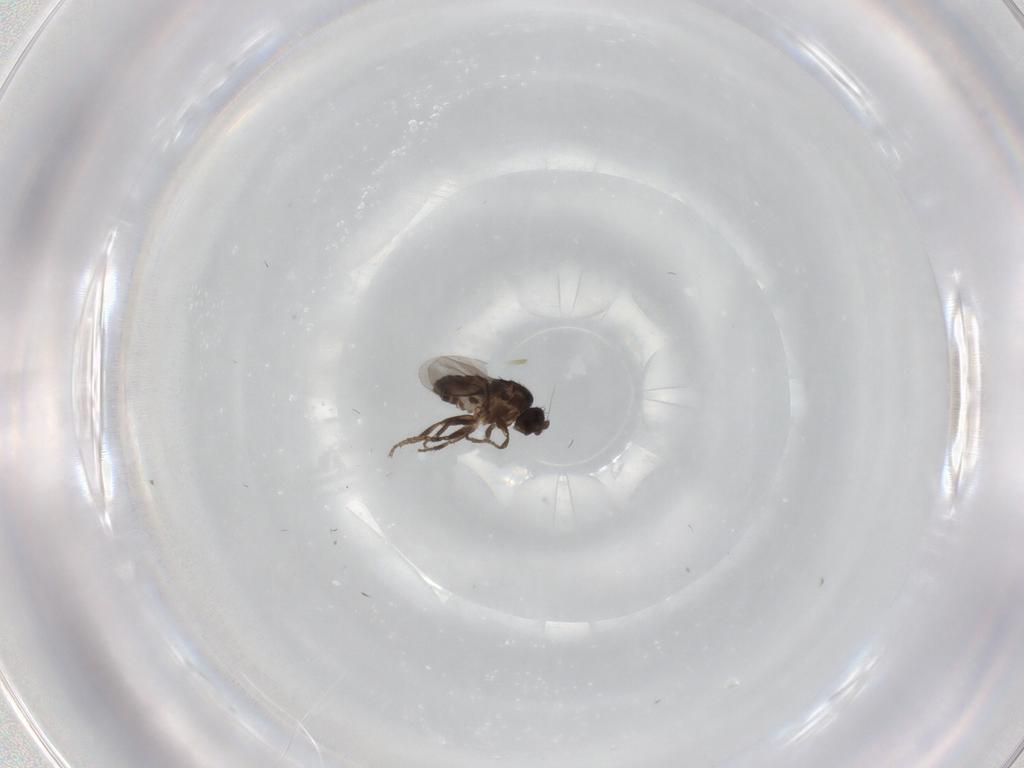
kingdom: Animalia
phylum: Arthropoda
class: Insecta
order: Diptera
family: Sphaeroceridae
